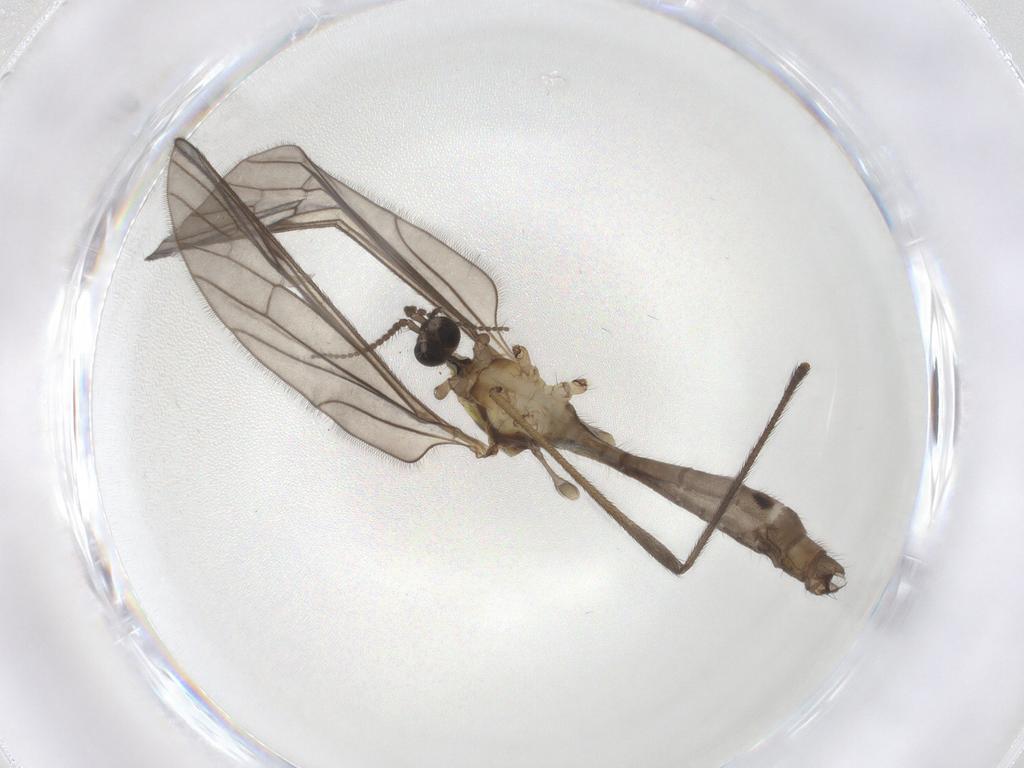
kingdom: Animalia
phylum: Arthropoda
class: Insecta
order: Diptera
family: Limoniidae
